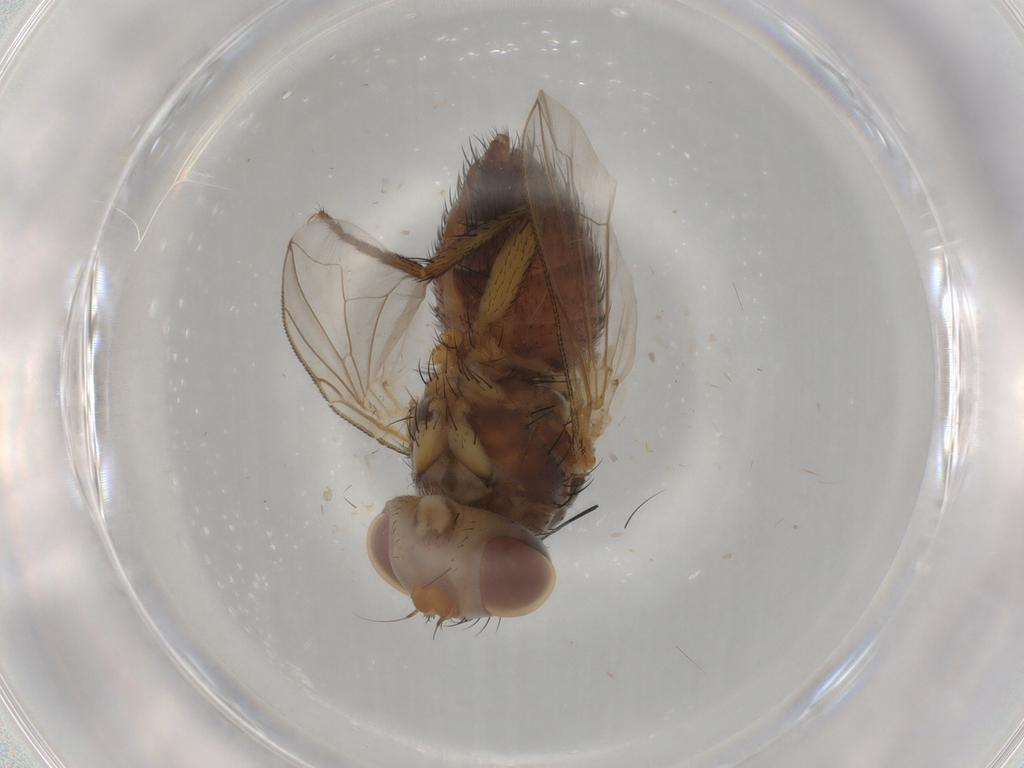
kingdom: Animalia
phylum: Arthropoda
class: Insecta
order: Diptera
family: Tachinidae
